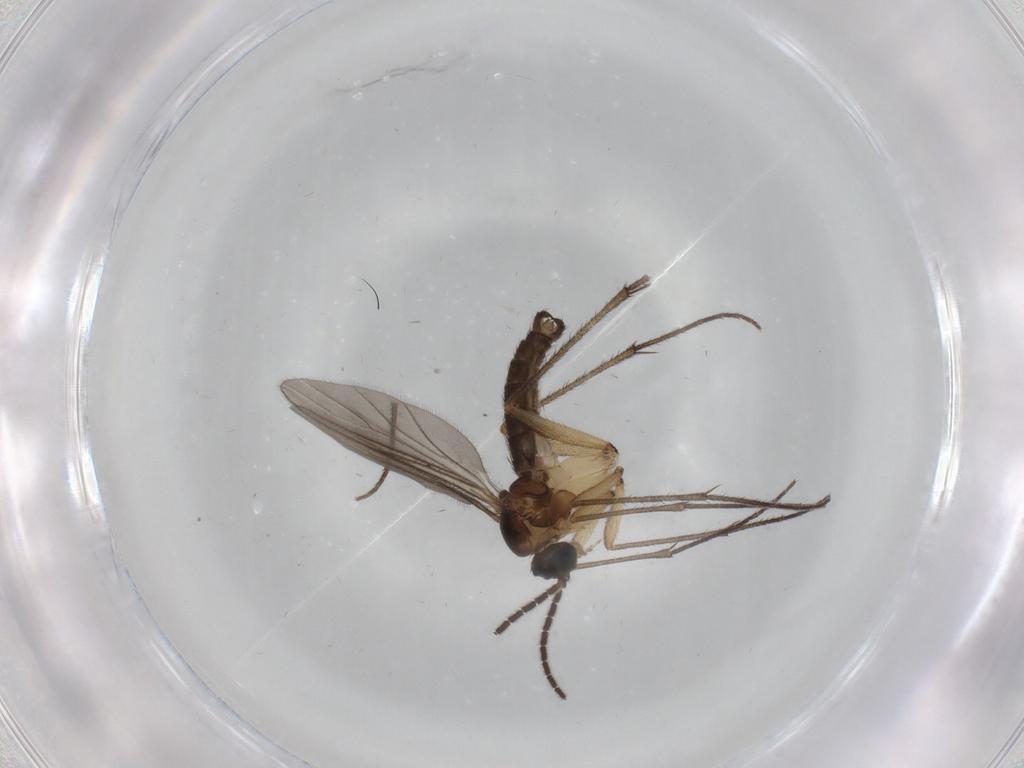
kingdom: Animalia
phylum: Arthropoda
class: Insecta
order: Diptera
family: Sciaridae
